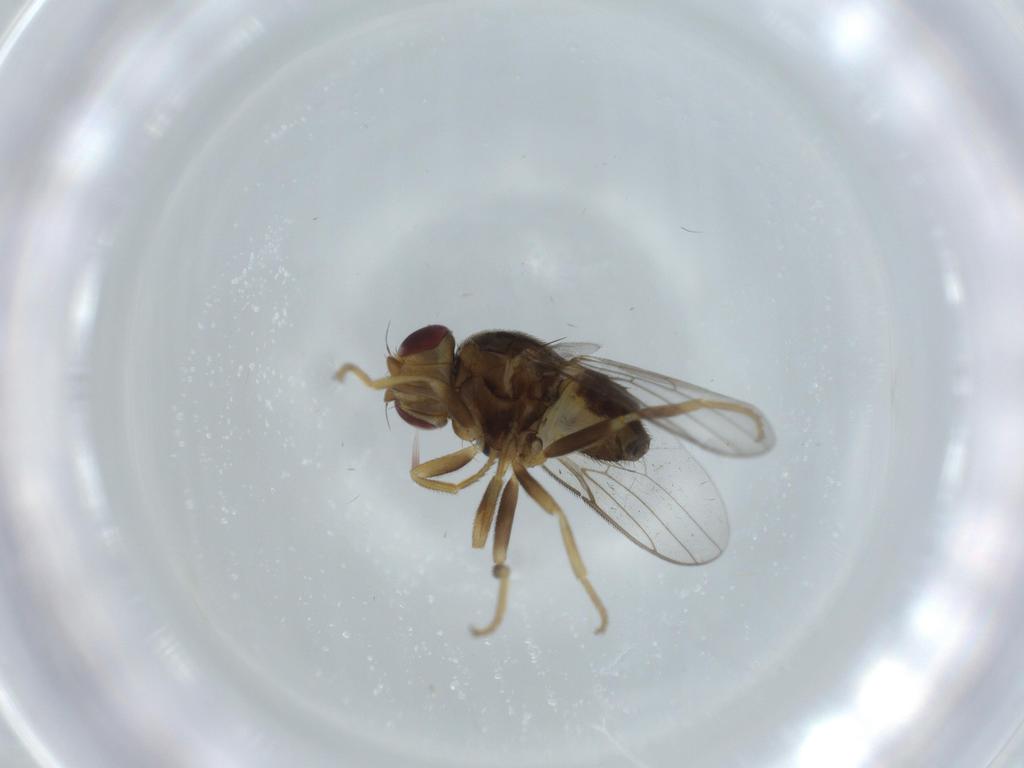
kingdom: Animalia
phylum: Arthropoda
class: Insecta
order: Diptera
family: Chloropidae
